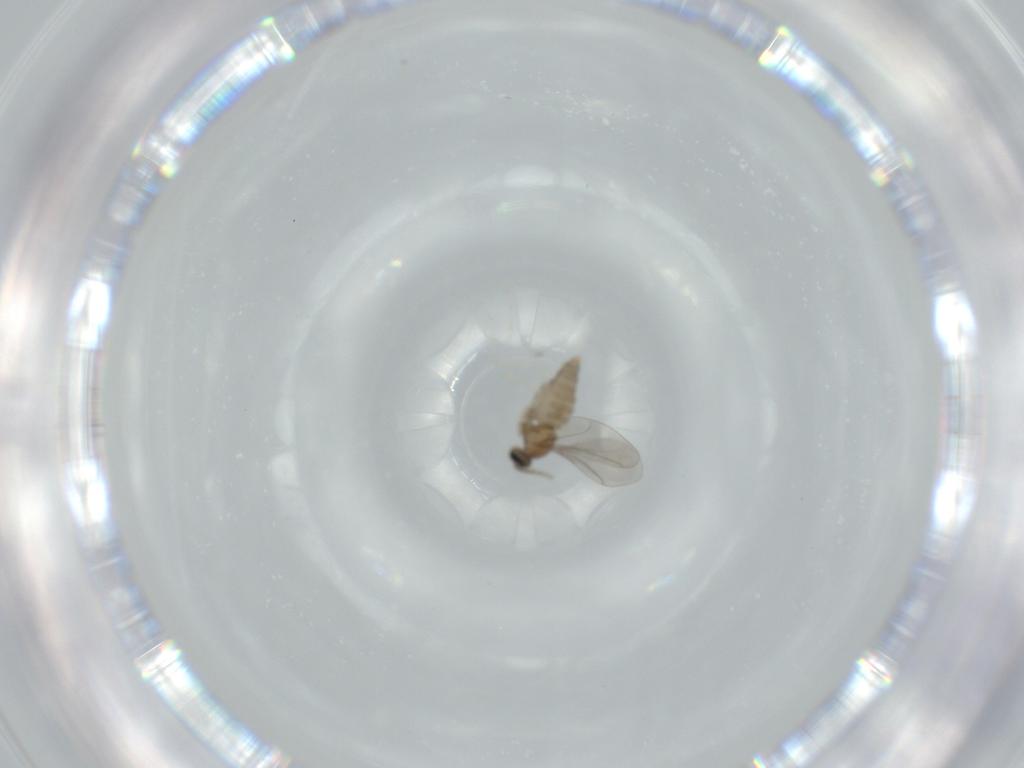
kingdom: Animalia
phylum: Arthropoda
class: Insecta
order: Diptera
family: Cecidomyiidae
